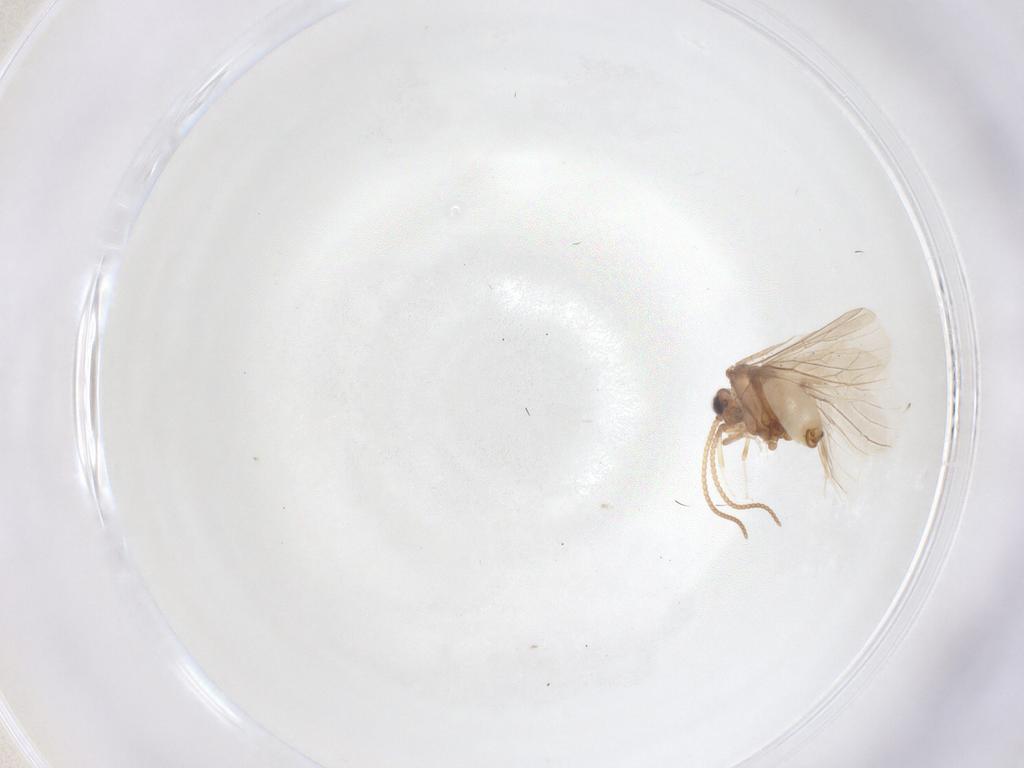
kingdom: Animalia
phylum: Arthropoda
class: Insecta
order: Neuroptera
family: Coniopterygidae
